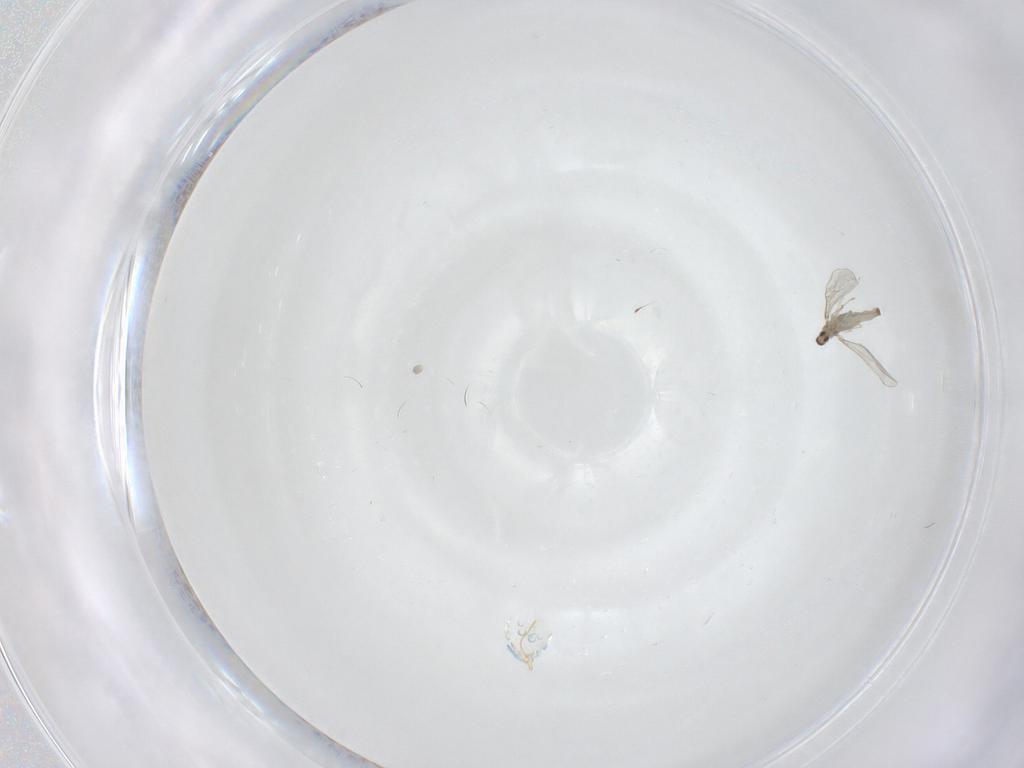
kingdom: Animalia
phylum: Arthropoda
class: Insecta
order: Diptera
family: Cecidomyiidae
